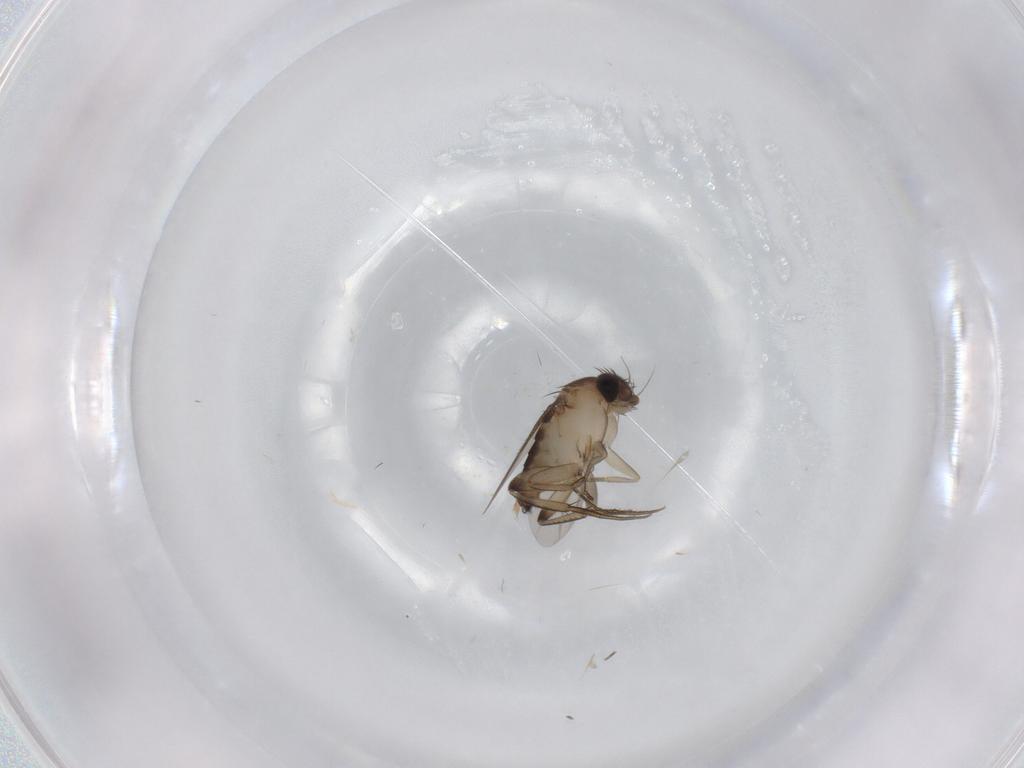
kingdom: Animalia
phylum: Arthropoda
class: Insecta
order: Diptera
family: Phoridae
